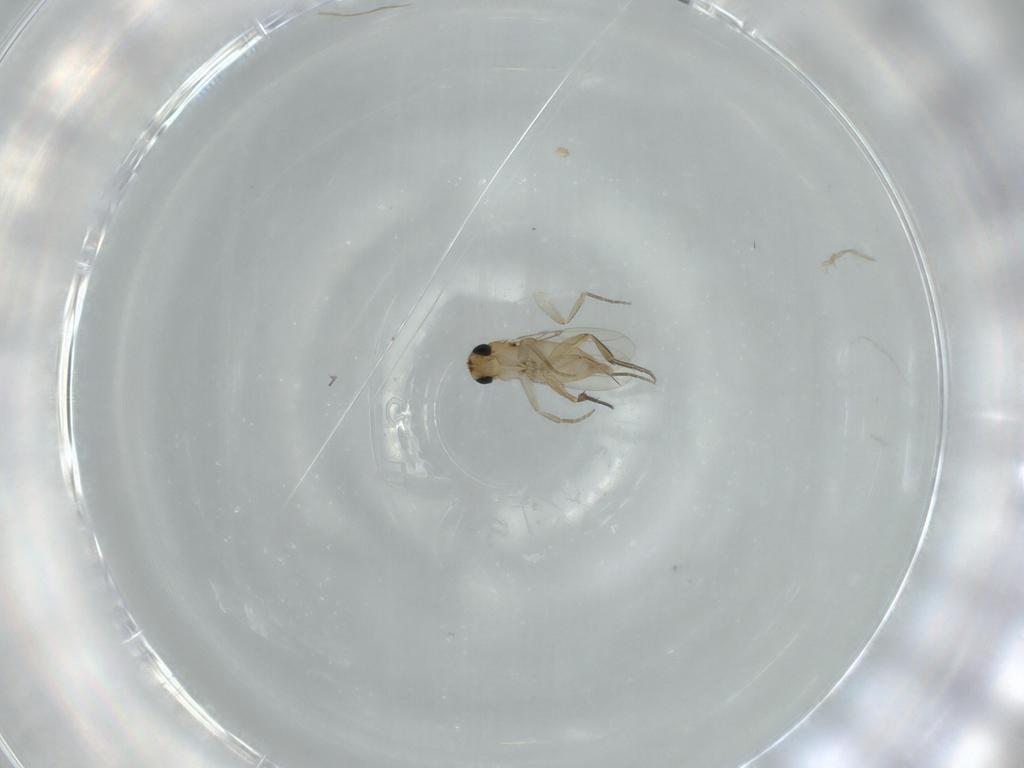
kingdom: Animalia
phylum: Arthropoda
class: Insecta
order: Diptera
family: Phoridae
